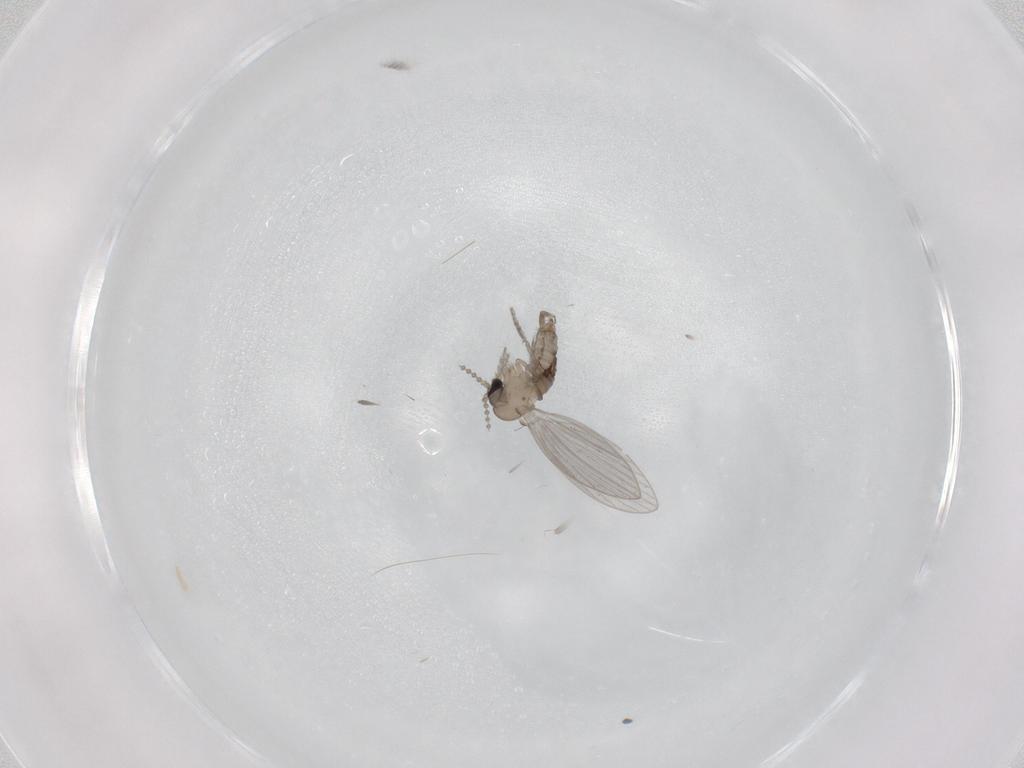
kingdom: Animalia
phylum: Arthropoda
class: Insecta
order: Diptera
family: Psychodidae
